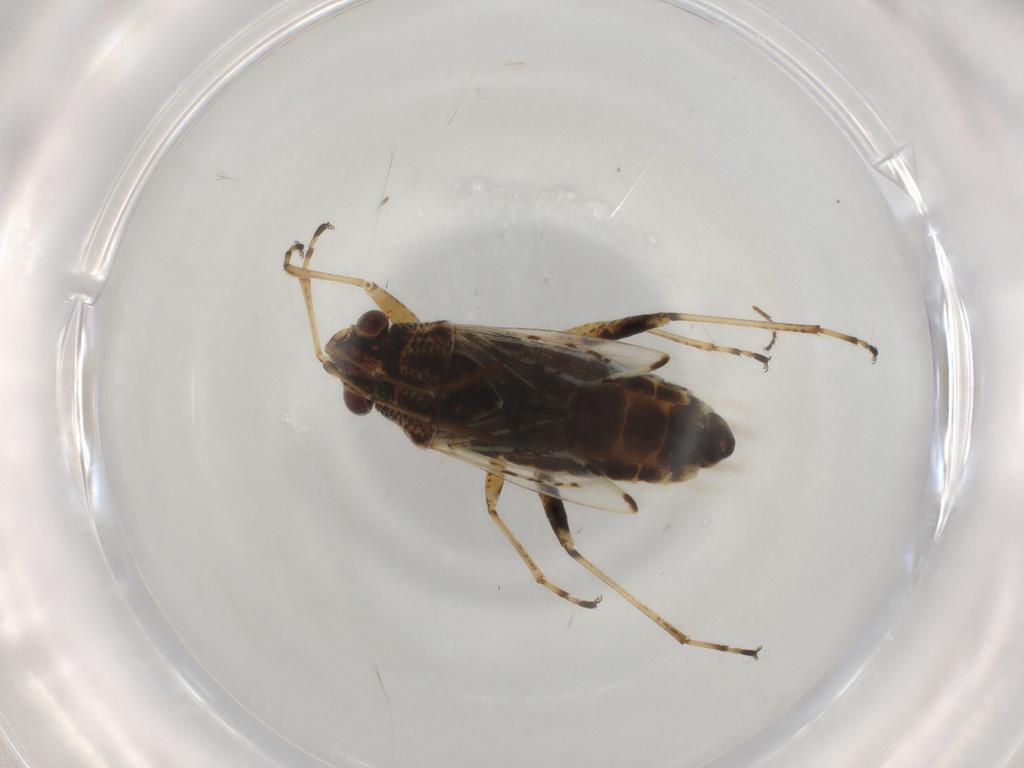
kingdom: Animalia
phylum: Arthropoda
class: Insecta
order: Hemiptera
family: Lygaeidae
